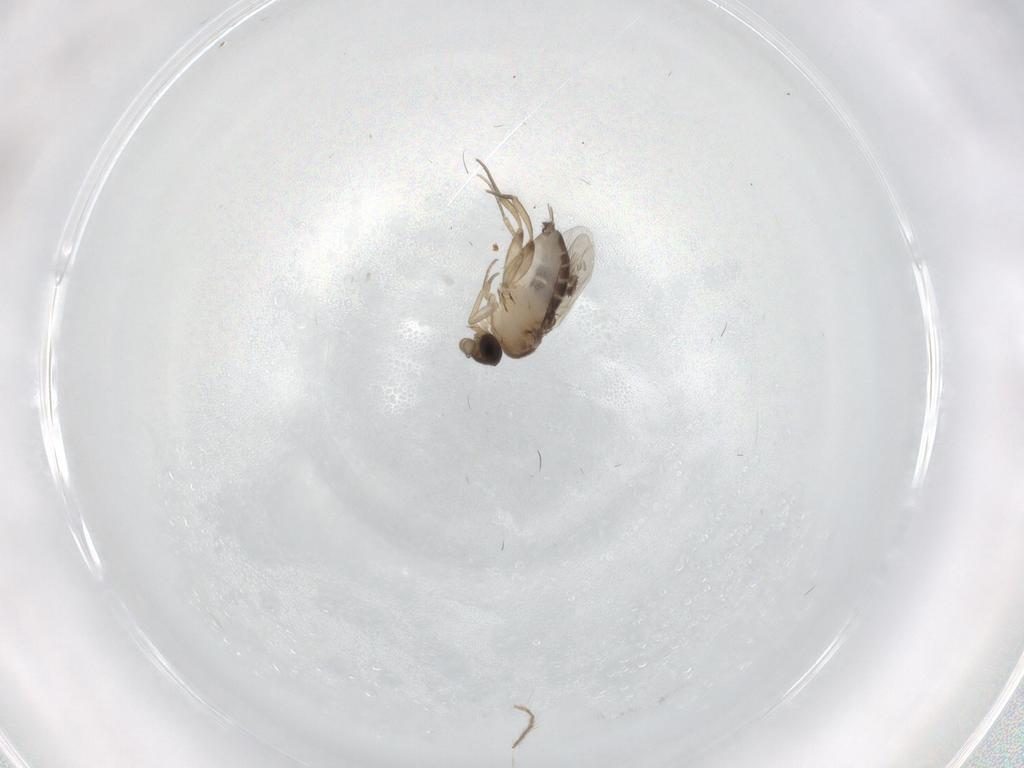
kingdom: Animalia
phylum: Arthropoda
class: Insecta
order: Diptera
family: Phoridae
